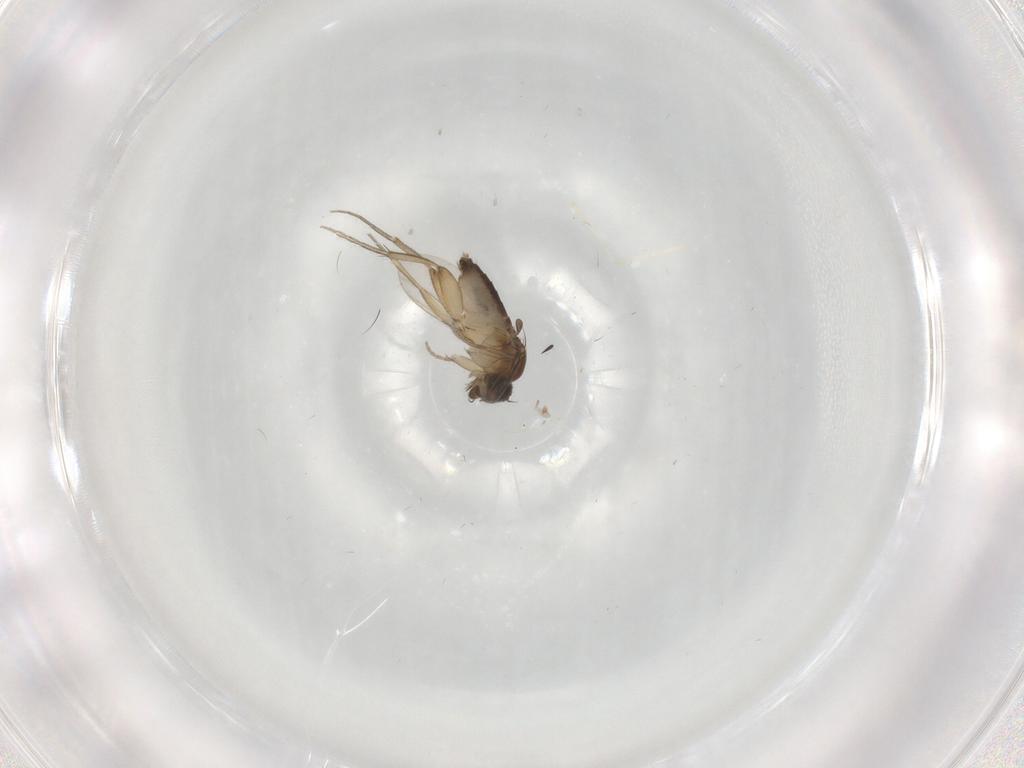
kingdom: Animalia
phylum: Arthropoda
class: Insecta
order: Diptera
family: Phoridae
